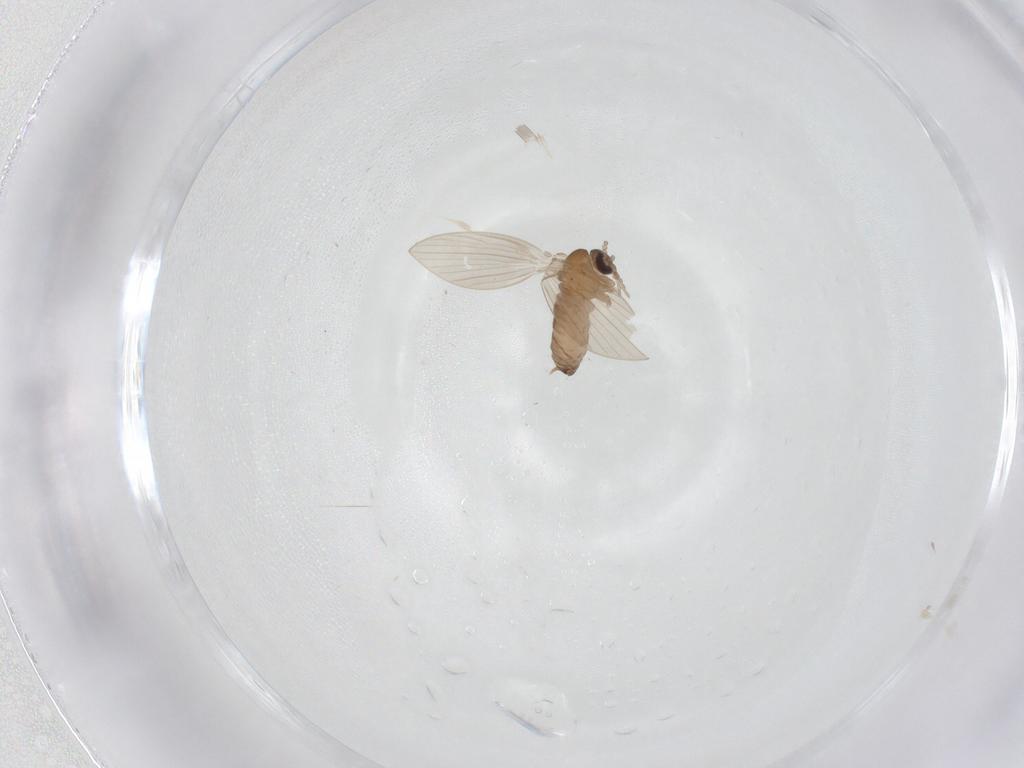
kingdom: Animalia
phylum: Arthropoda
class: Insecta
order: Diptera
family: Psychodidae
